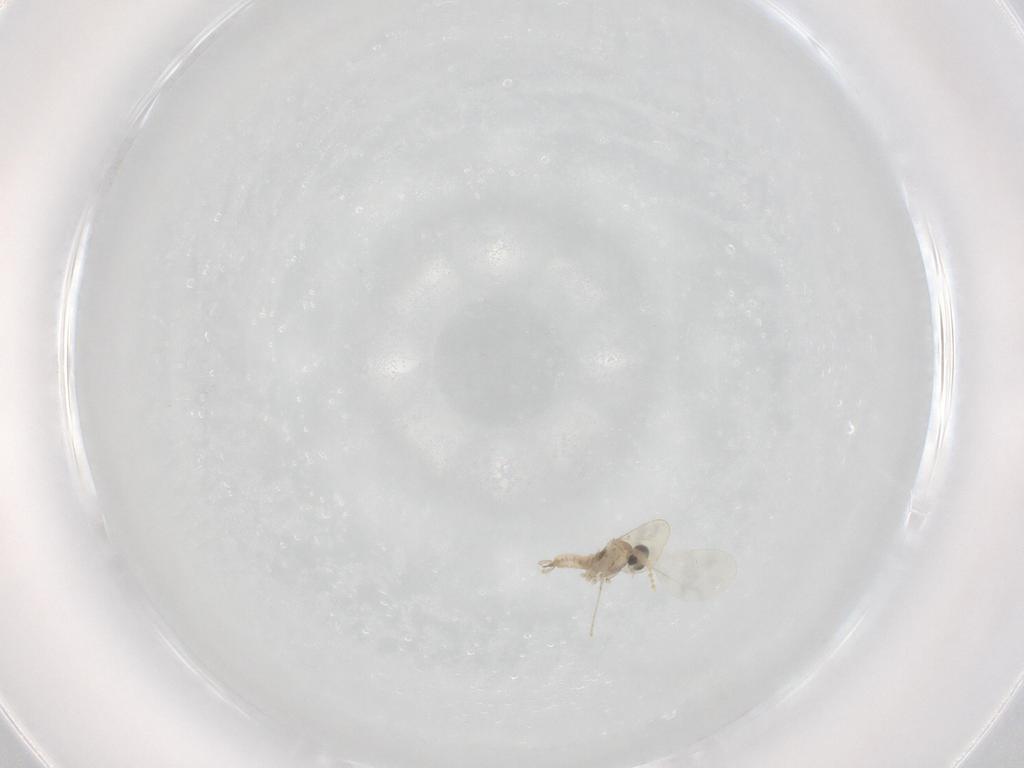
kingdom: Animalia
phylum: Arthropoda
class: Insecta
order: Diptera
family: Cecidomyiidae
